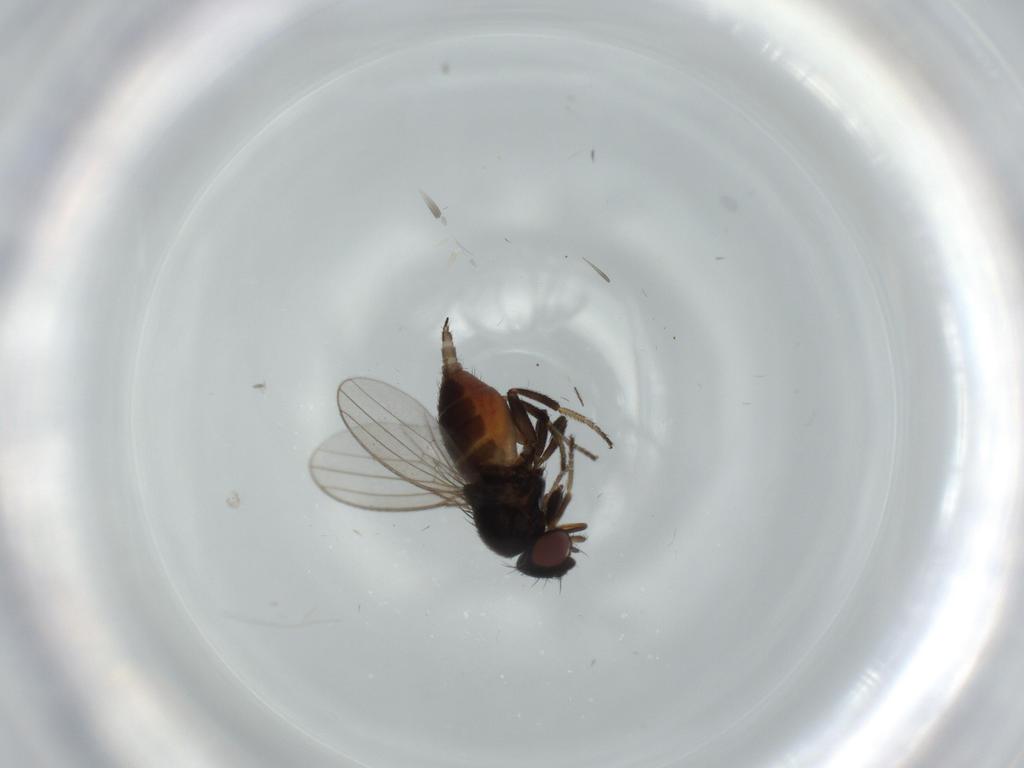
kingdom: Animalia
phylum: Arthropoda
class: Insecta
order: Diptera
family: Milichiidae
